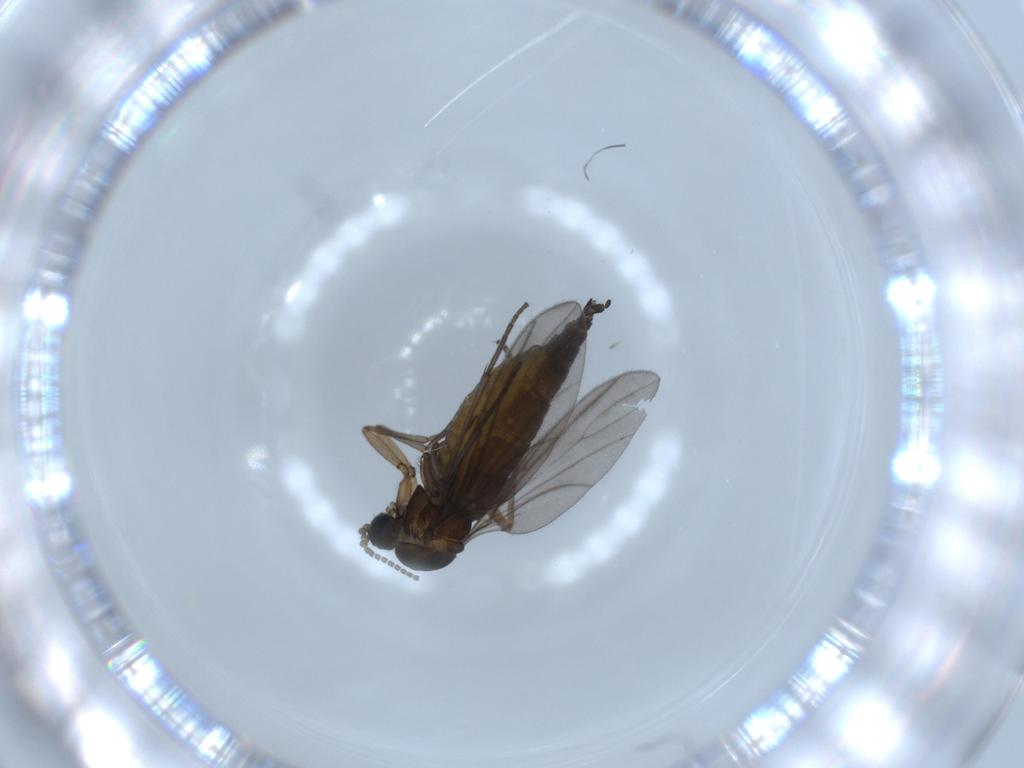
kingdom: Animalia
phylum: Arthropoda
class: Insecta
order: Diptera
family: Sciaridae
